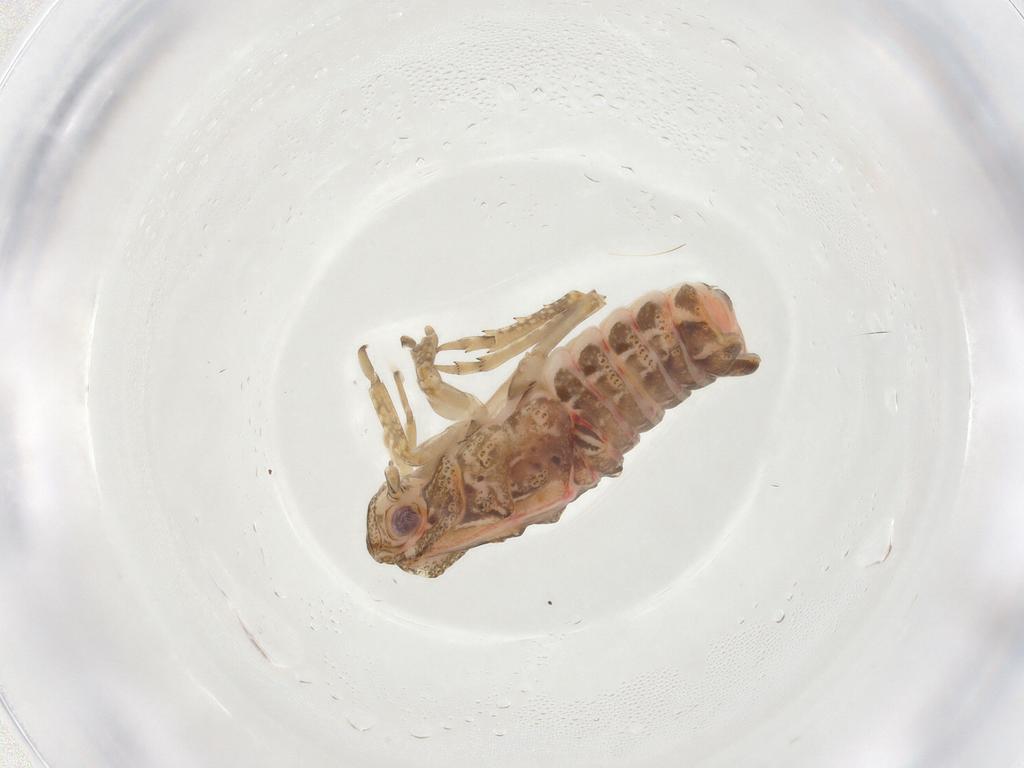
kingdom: Animalia
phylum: Arthropoda
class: Insecta
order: Hemiptera
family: Flatidae
